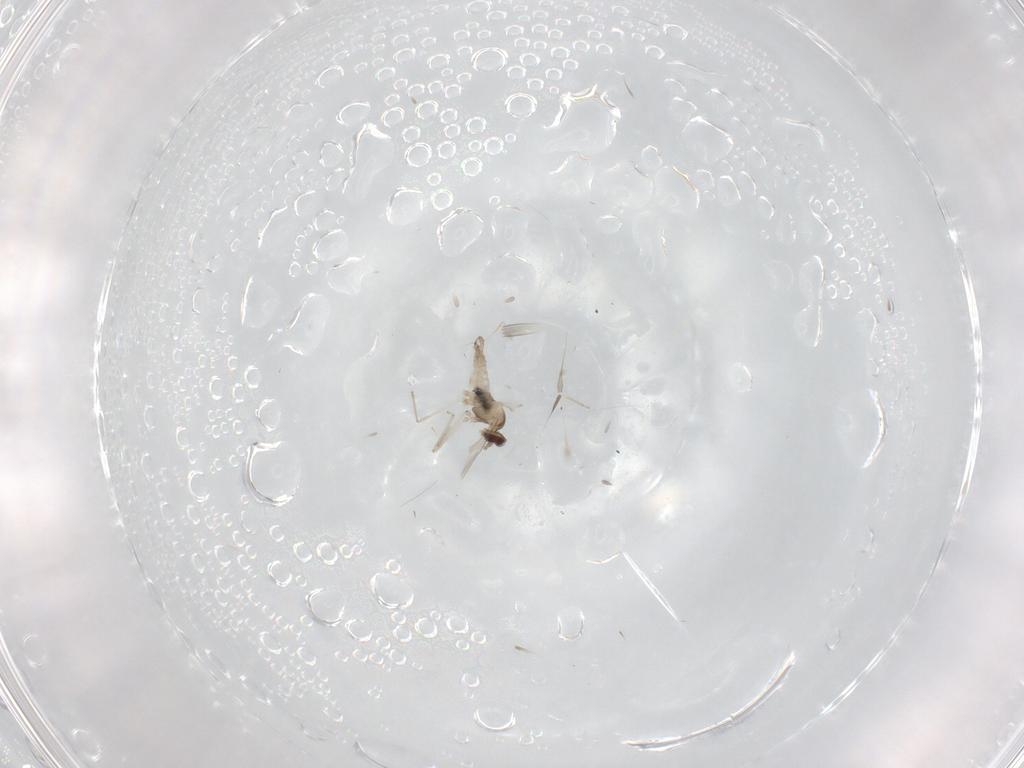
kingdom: Animalia
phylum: Arthropoda
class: Insecta
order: Diptera
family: Cecidomyiidae
